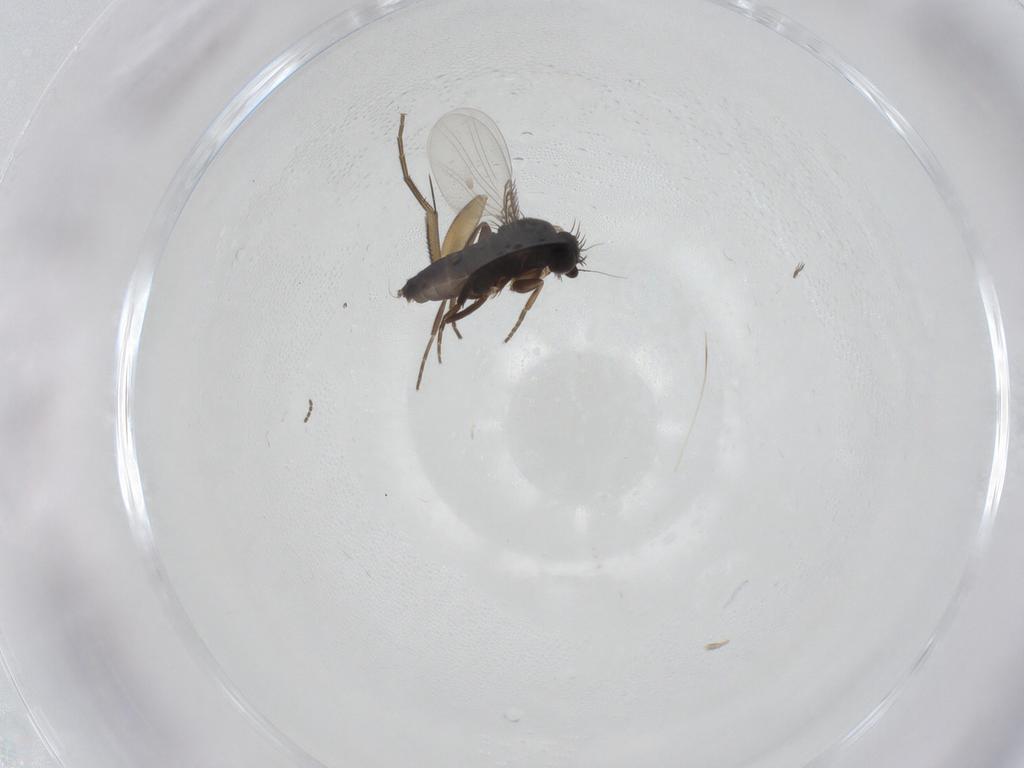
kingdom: Animalia
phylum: Arthropoda
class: Insecta
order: Diptera
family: Phoridae
